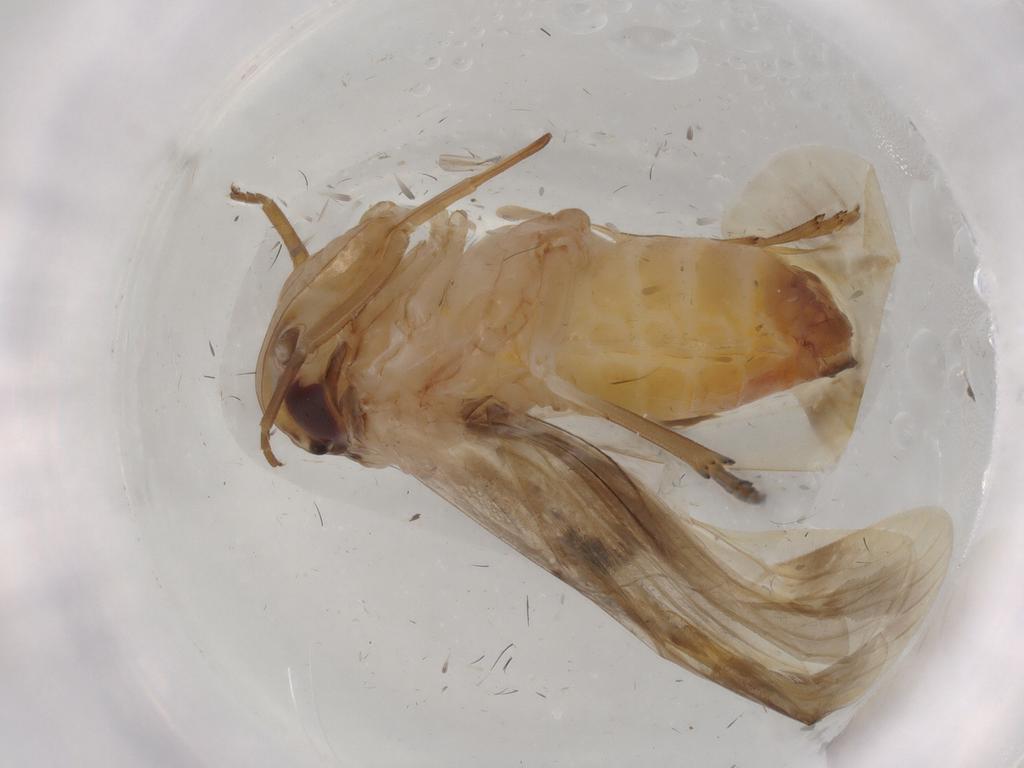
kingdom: Animalia
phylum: Arthropoda
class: Insecta
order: Hemiptera
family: Achilidae
